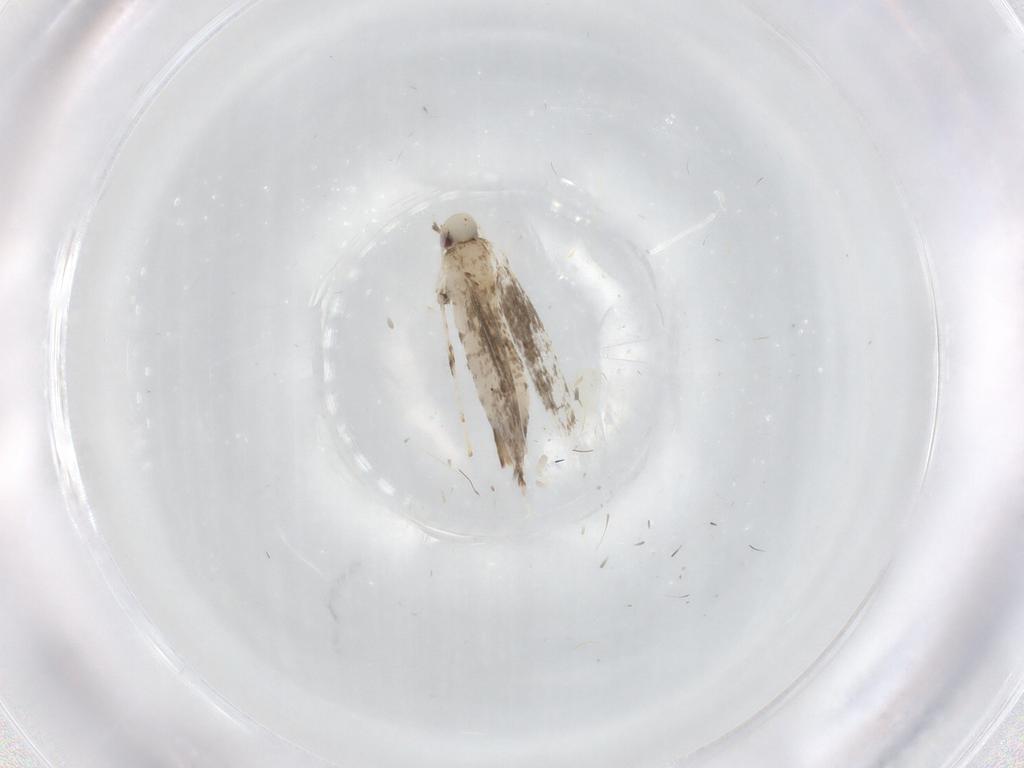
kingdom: Animalia
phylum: Arthropoda
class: Insecta
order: Lepidoptera
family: Gracillariidae
